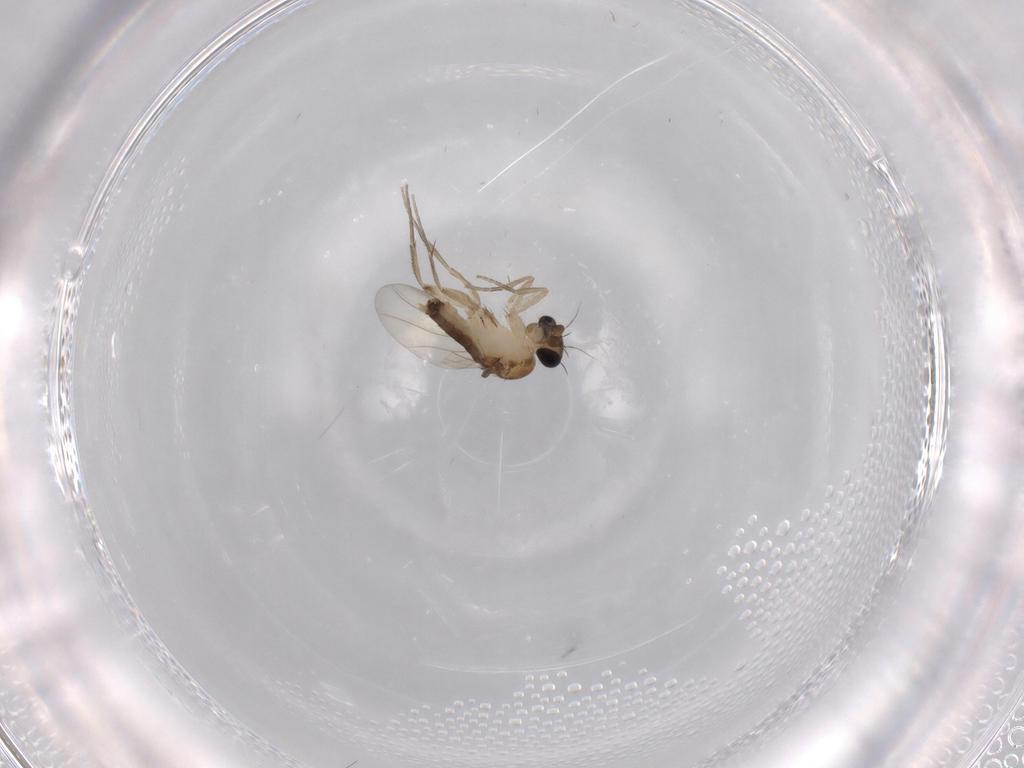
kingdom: Animalia
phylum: Arthropoda
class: Insecta
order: Diptera
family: Phoridae
